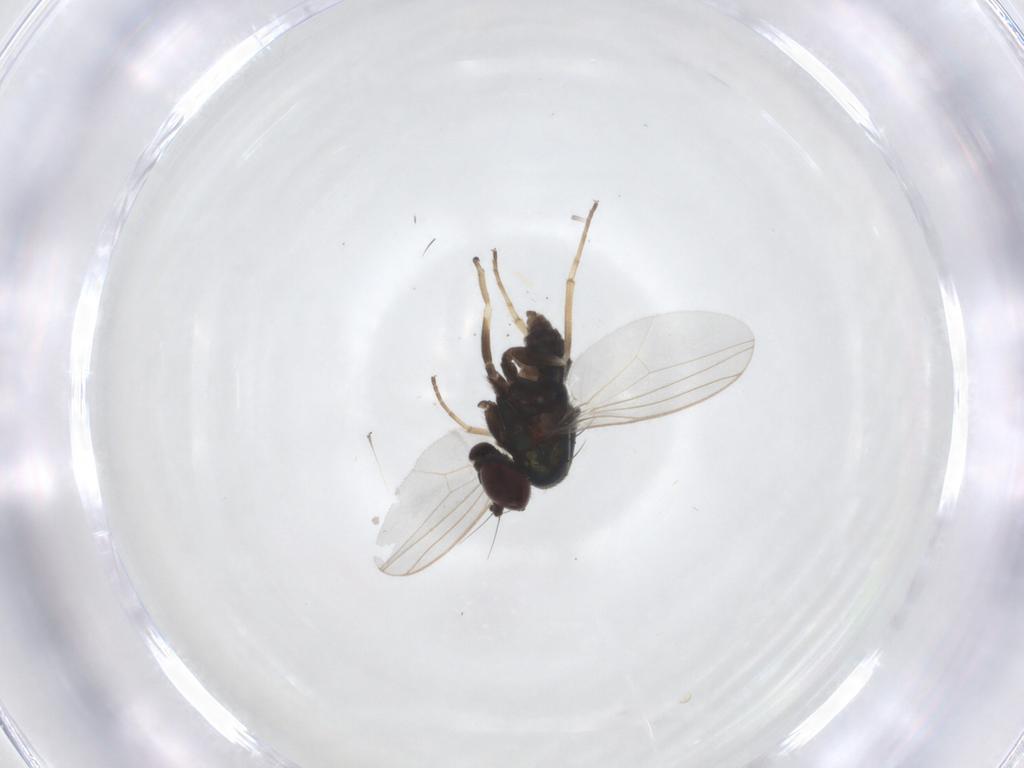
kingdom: Animalia
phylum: Arthropoda
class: Insecta
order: Diptera
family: Dolichopodidae
